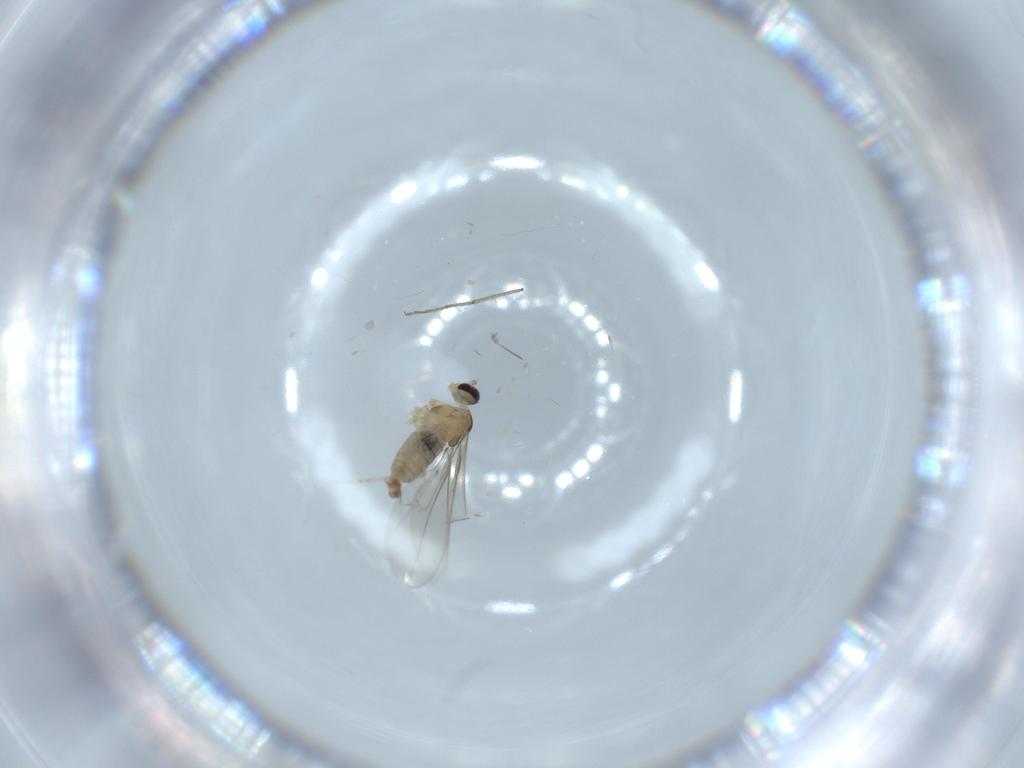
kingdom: Animalia
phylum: Arthropoda
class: Insecta
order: Diptera
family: Cecidomyiidae
